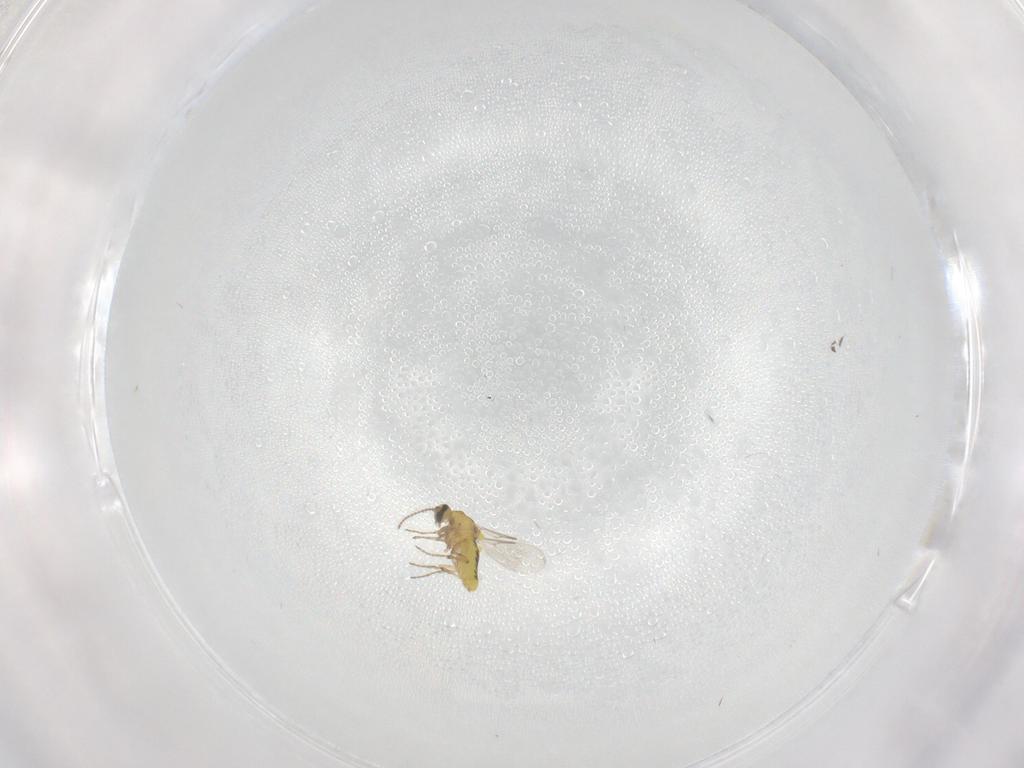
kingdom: Animalia
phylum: Arthropoda
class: Insecta
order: Diptera
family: Ceratopogonidae
